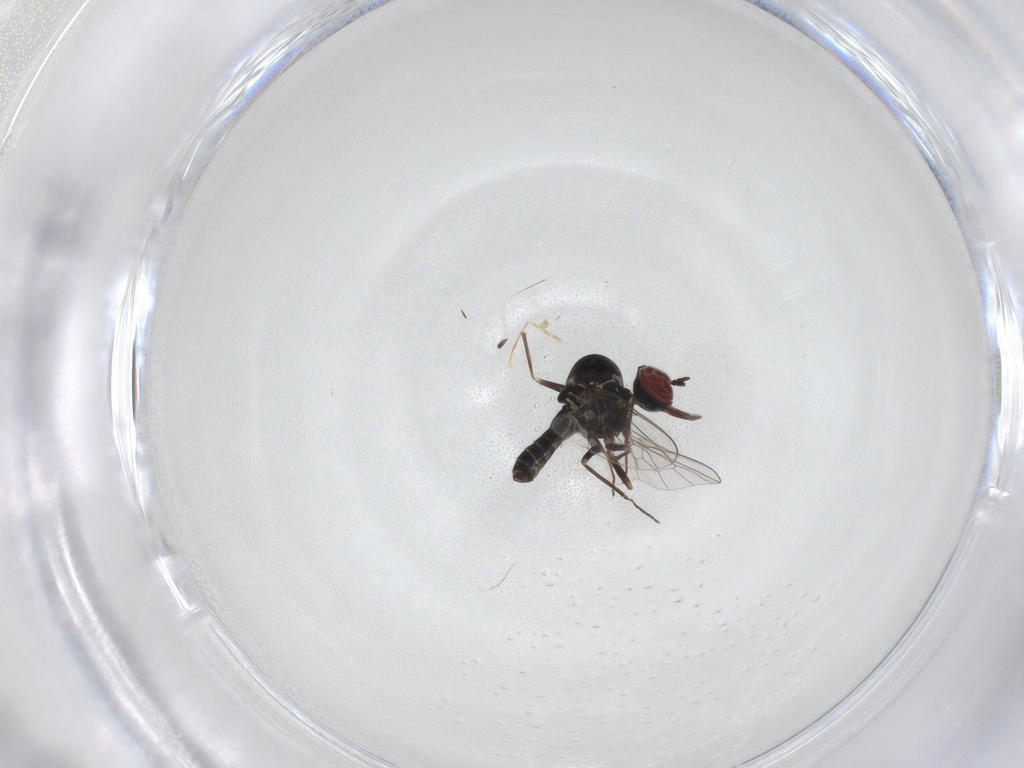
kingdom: Animalia
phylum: Arthropoda
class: Insecta
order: Diptera
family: Mythicomyiidae
